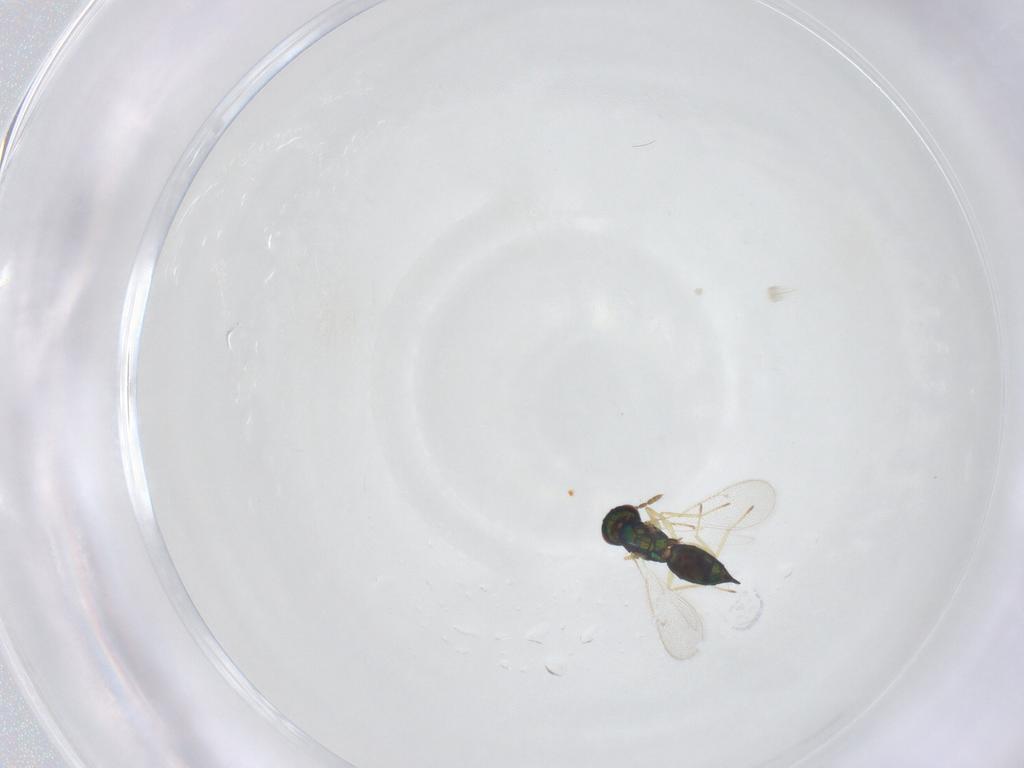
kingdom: Animalia
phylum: Arthropoda
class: Insecta
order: Hymenoptera
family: Eulophidae
